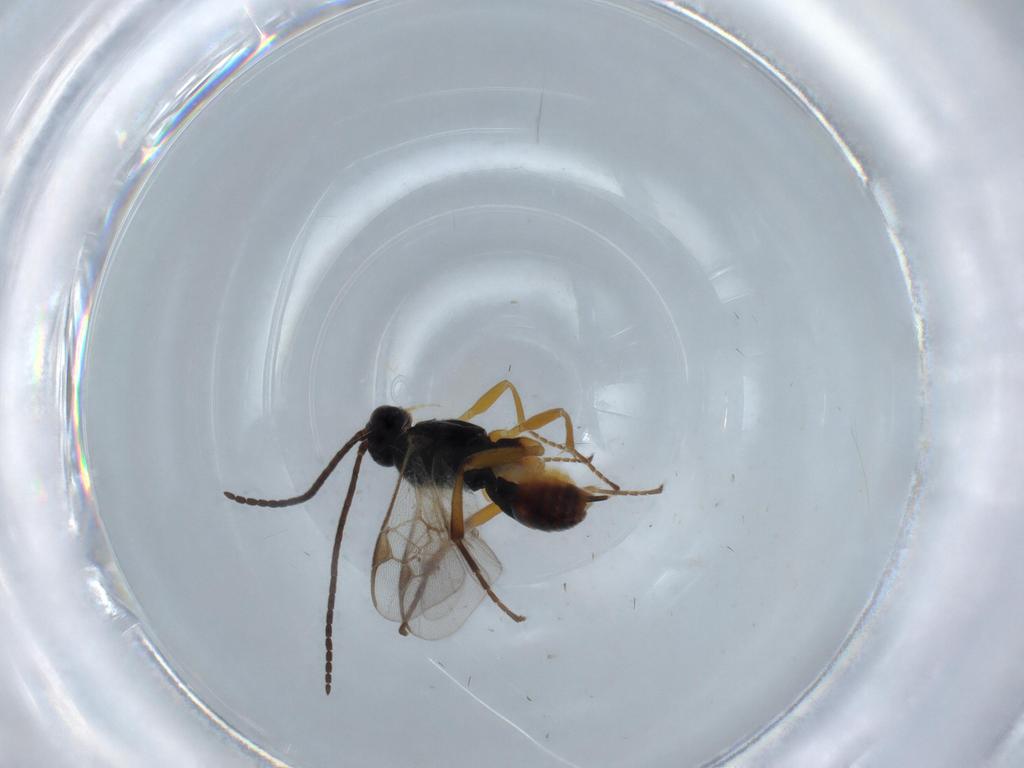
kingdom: Animalia
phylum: Arthropoda
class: Insecta
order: Hymenoptera
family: Braconidae
